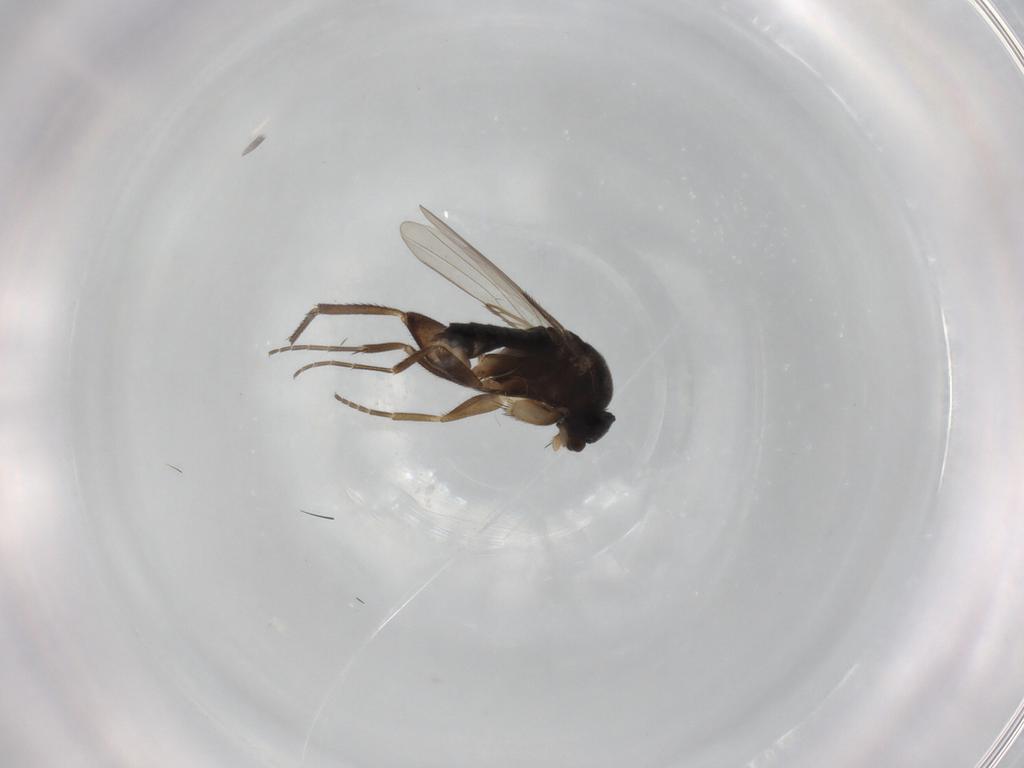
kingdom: Animalia
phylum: Arthropoda
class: Insecta
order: Diptera
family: Phoridae
